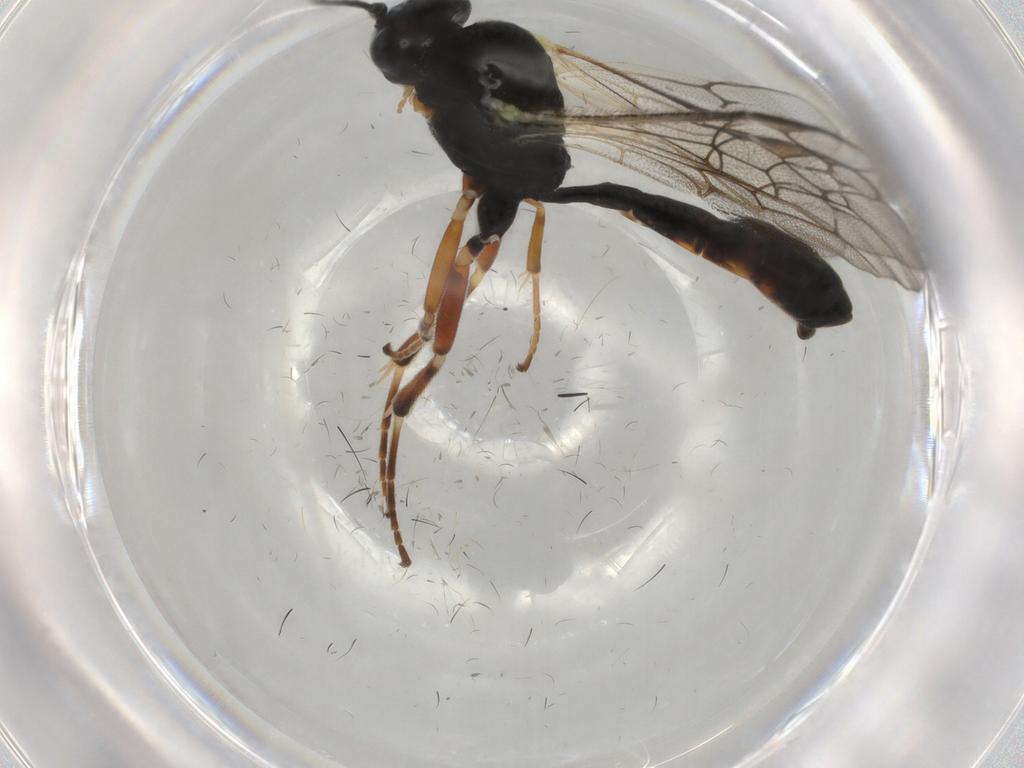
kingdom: Animalia
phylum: Arthropoda
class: Insecta
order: Hymenoptera
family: Ichneumonidae
